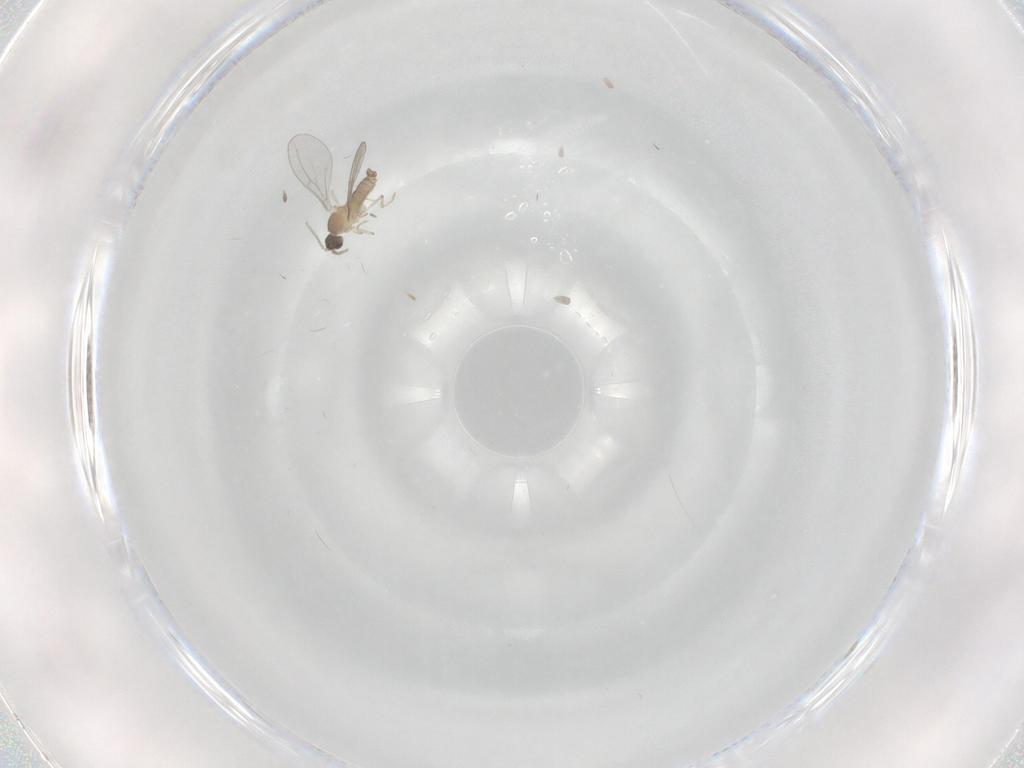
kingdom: Animalia
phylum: Arthropoda
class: Insecta
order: Diptera
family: Cecidomyiidae
